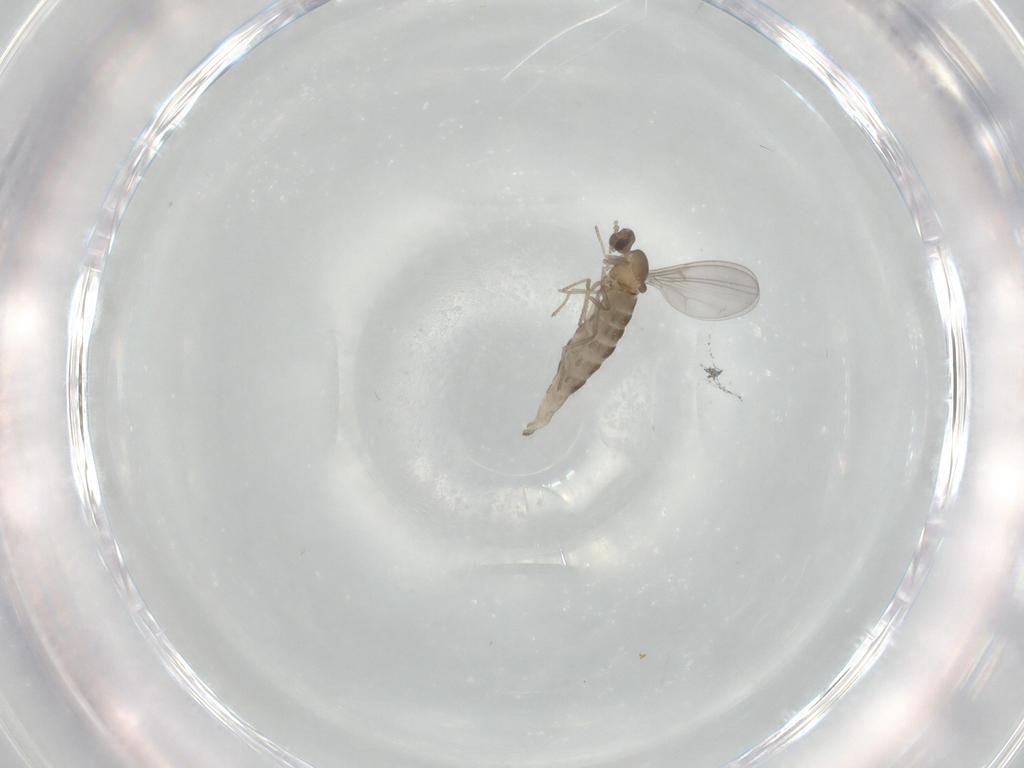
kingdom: Animalia
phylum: Arthropoda
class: Insecta
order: Diptera
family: Cecidomyiidae
